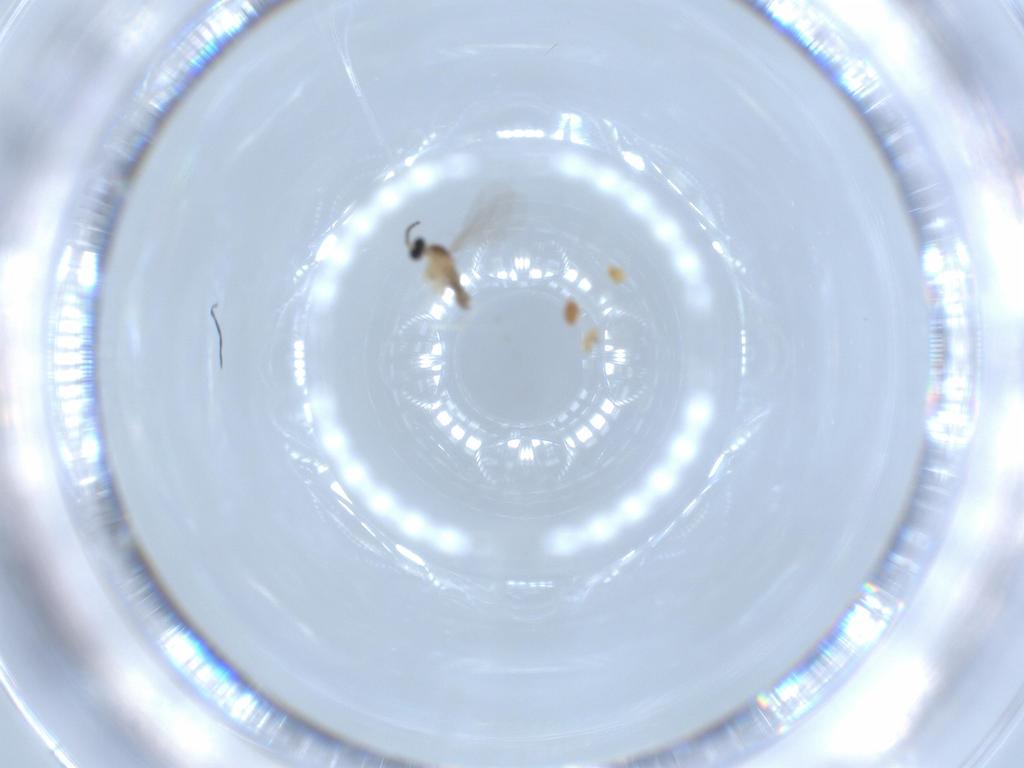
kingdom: Animalia
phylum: Arthropoda
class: Insecta
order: Diptera
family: Cecidomyiidae
